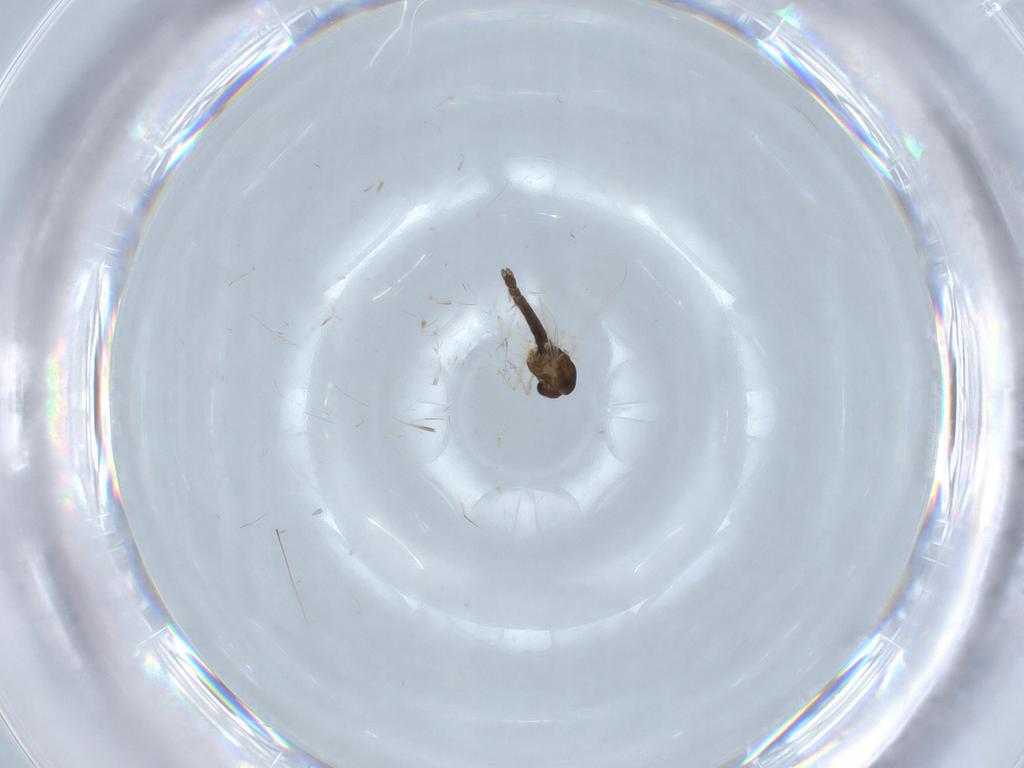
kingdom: Animalia
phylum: Arthropoda
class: Insecta
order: Diptera
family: Chironomidae
